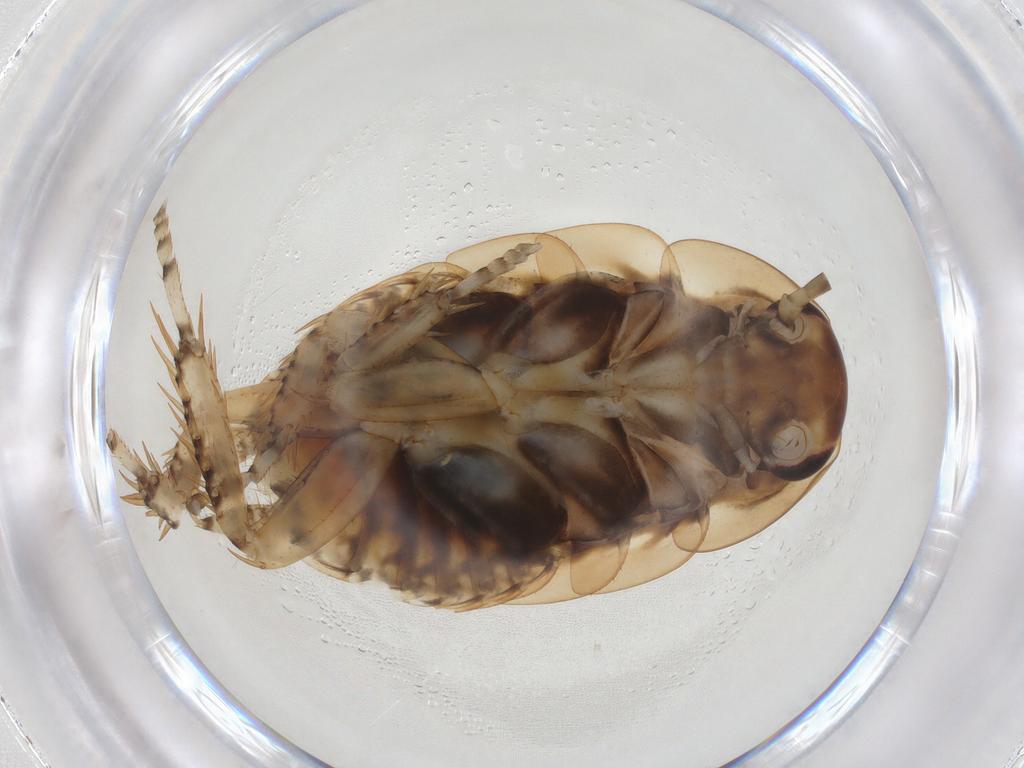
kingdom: Animalia
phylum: Arthropoda
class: Insecta
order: Blattodea
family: Blattidae
